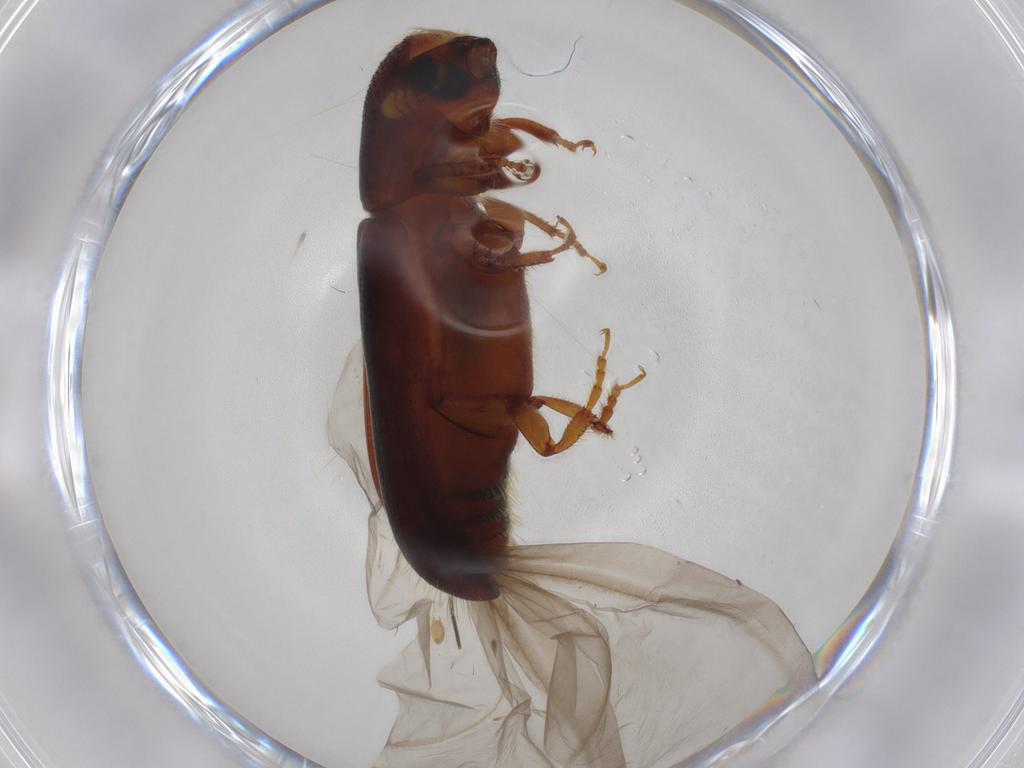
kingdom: Animalia
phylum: Arthropoda
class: Insecta
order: Coleoptera
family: Curculionidae
